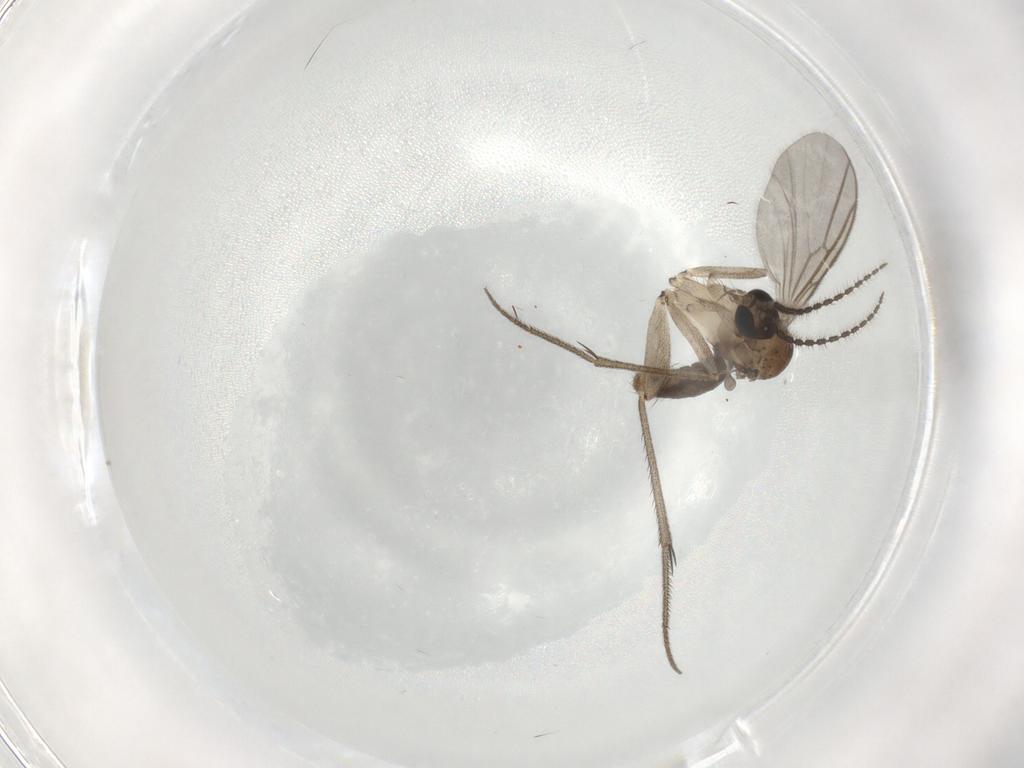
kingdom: Animalia
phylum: Arthropoda
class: Insecta
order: Diptera
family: Mycetophilidae
